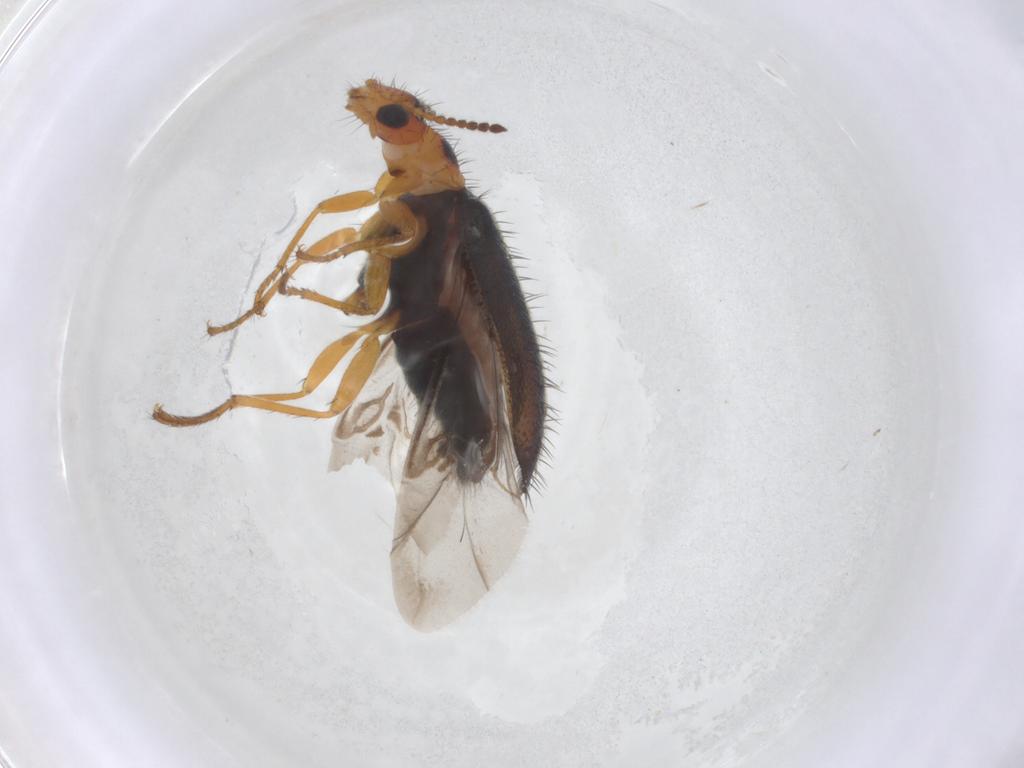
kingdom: Animalia
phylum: Arthropoda
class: Insecta
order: Coleoptera
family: Melyridae
